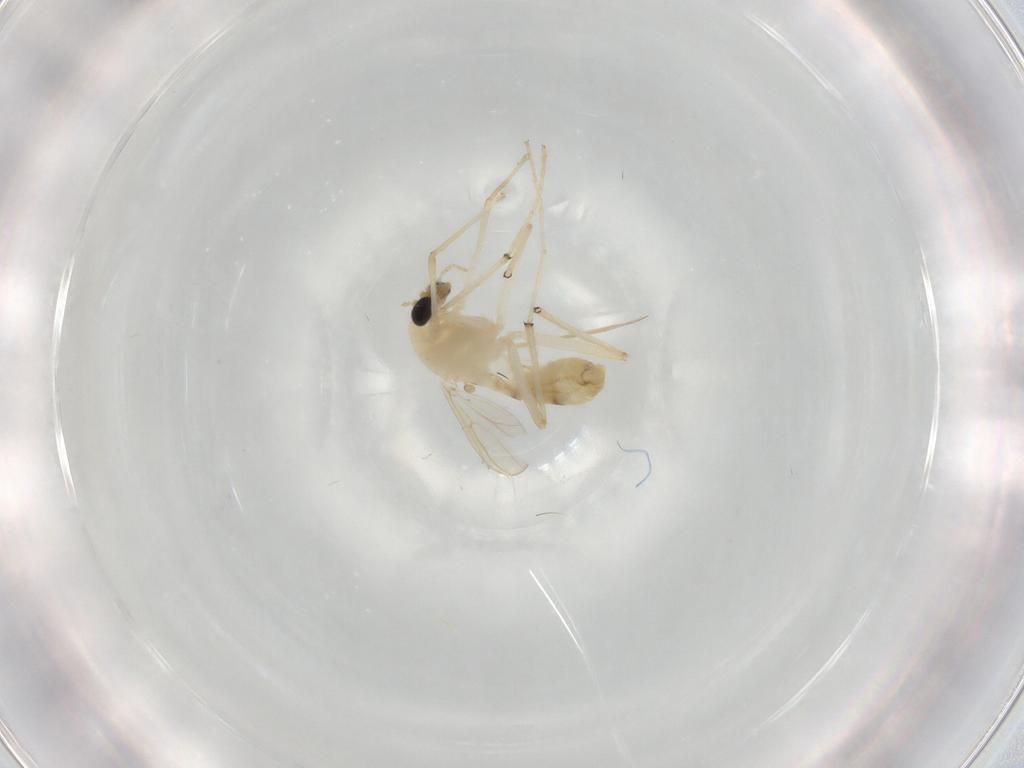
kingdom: Animalia
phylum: Arthropoda
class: Insecta
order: Diptera
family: Chironomidae
